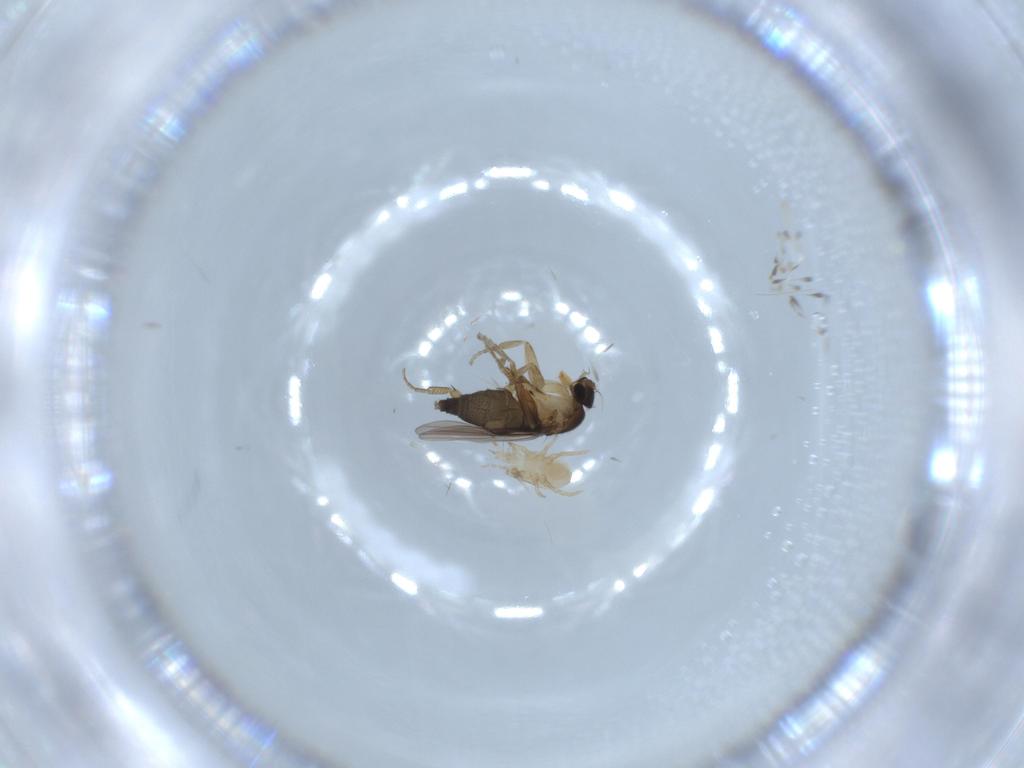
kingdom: Animalia
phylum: Arthropoda
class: Insecta
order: Diptera
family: Phoridae
